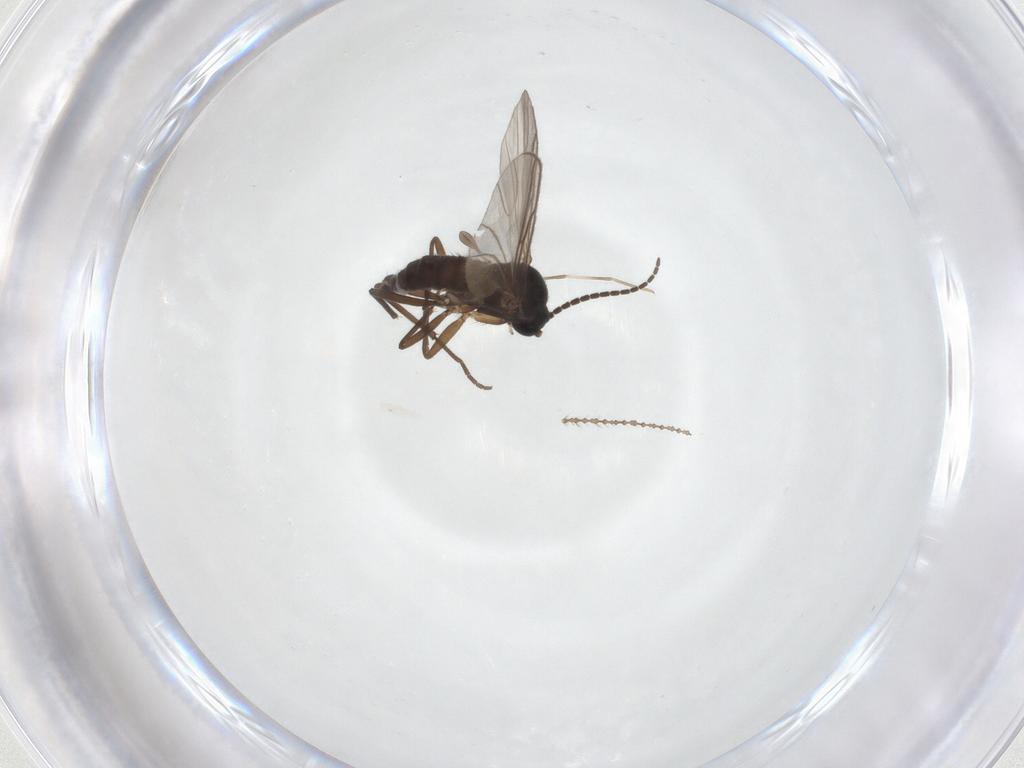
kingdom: Animalia
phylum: Arthropoda
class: Insecta
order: Diptera
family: Sciaridae
